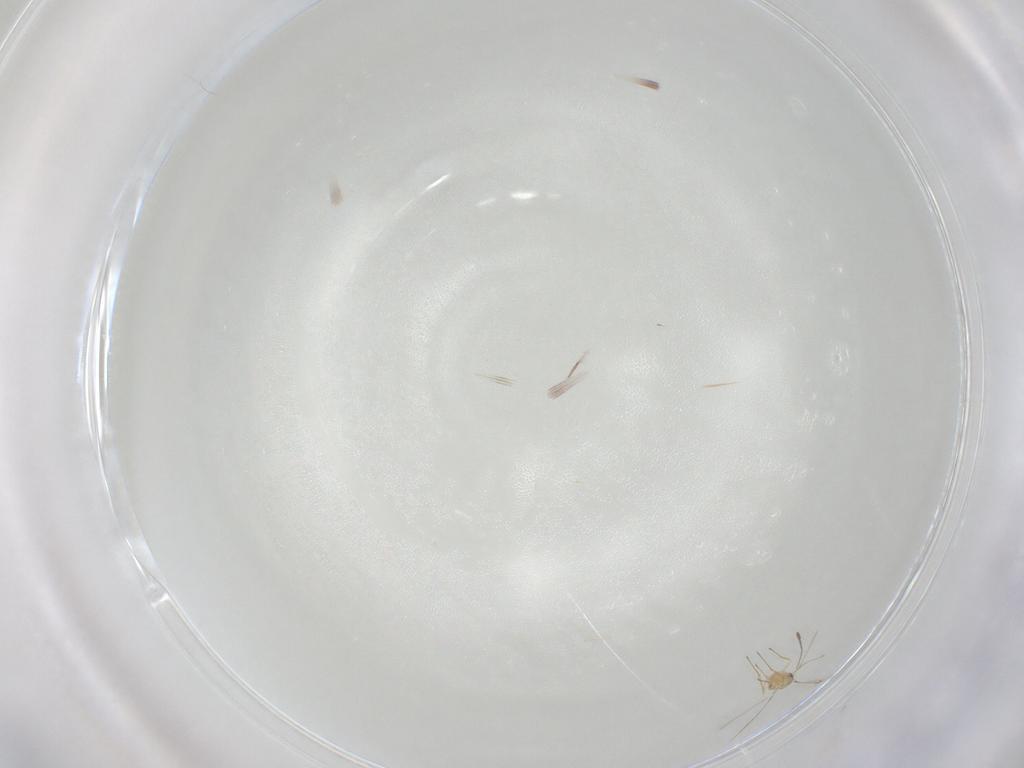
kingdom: Animalia
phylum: Arthropoda
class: Insecta
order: Hymenoptera
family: Mymaridae
